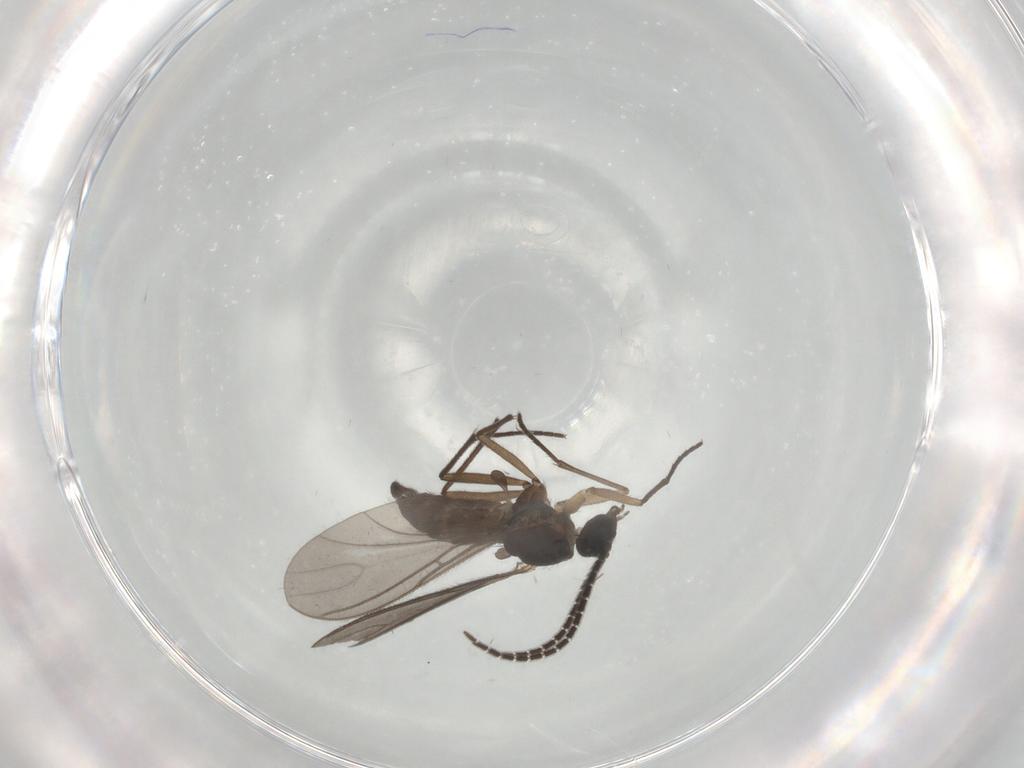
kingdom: Animalia
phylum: Arthropoda
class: Insecta
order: Diptera
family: Sciaridae
